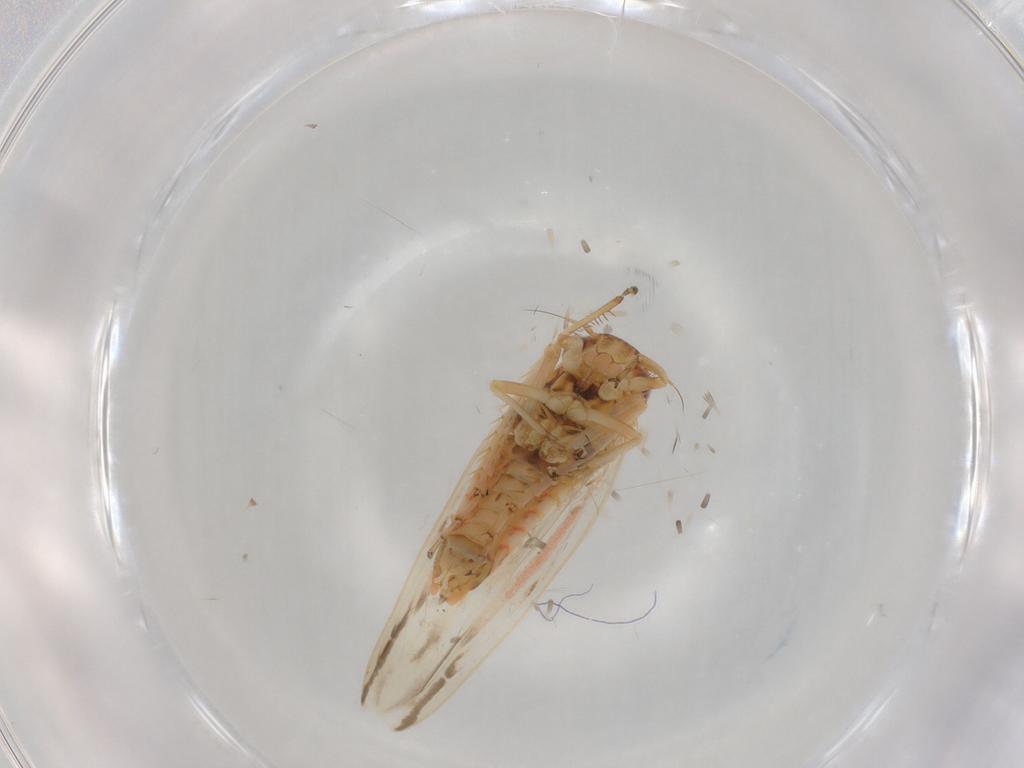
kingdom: Animalia
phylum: Arthropoda
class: Insecta
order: Hemiptera
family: Cicadellidae
